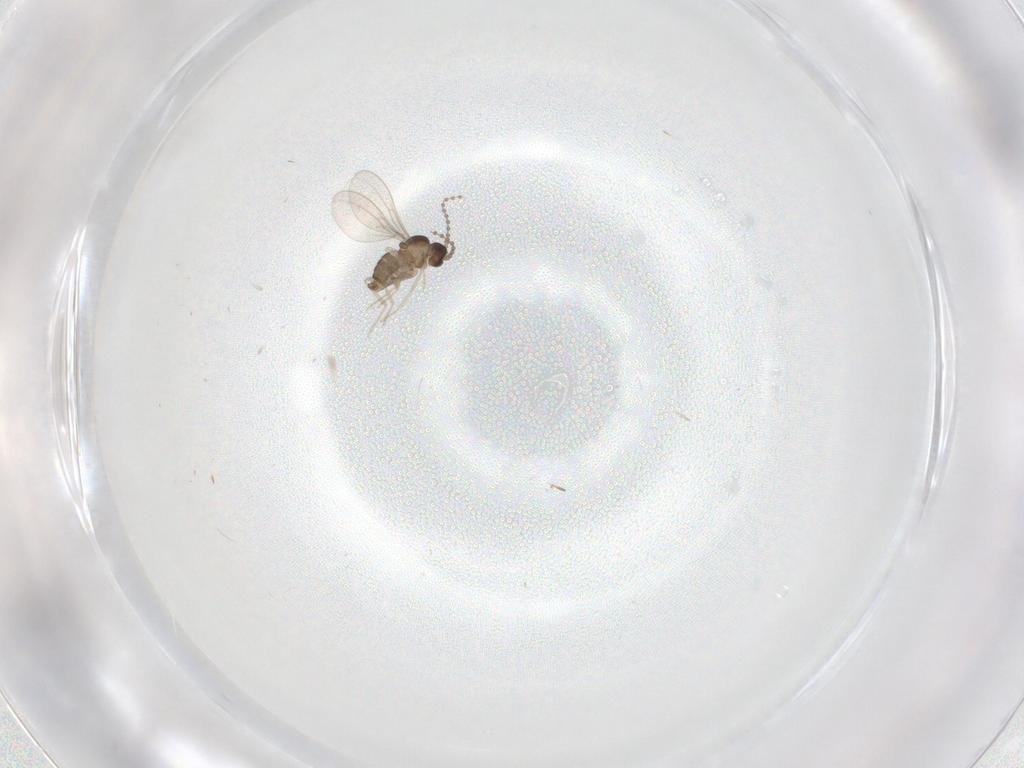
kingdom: Animalia
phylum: Arthropoda
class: Insecta
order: Diptera
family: Cecidomyiidae
